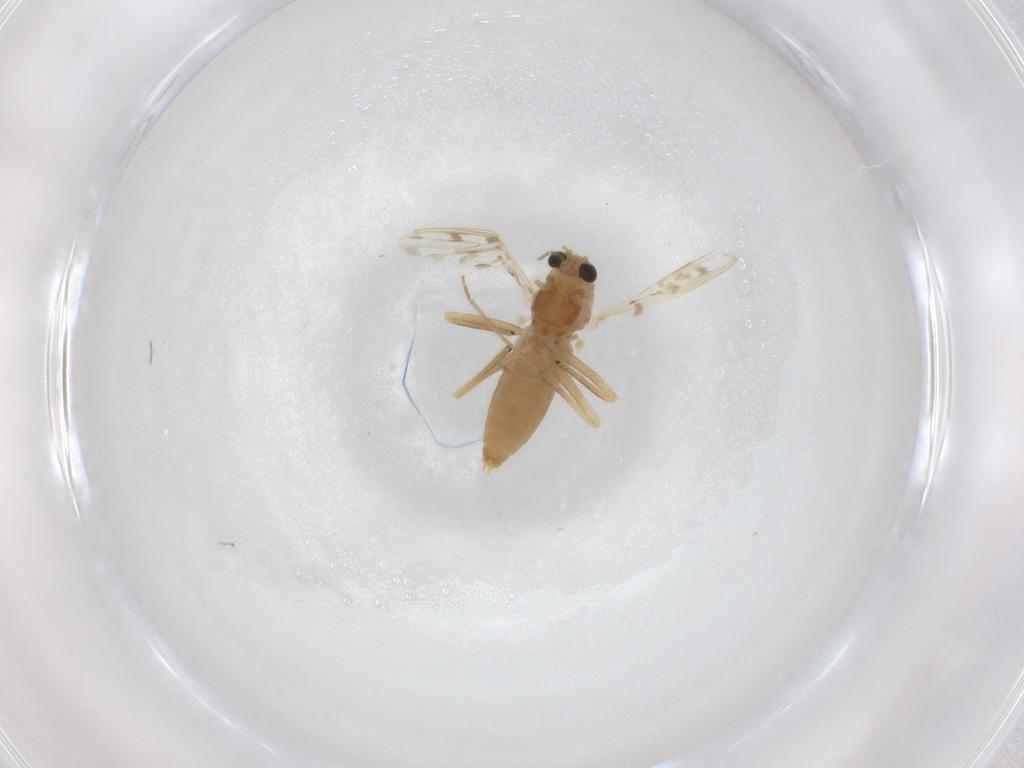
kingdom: Animalia
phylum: Arthropoda
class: Insecta
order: Diptera
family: Chironomidae
